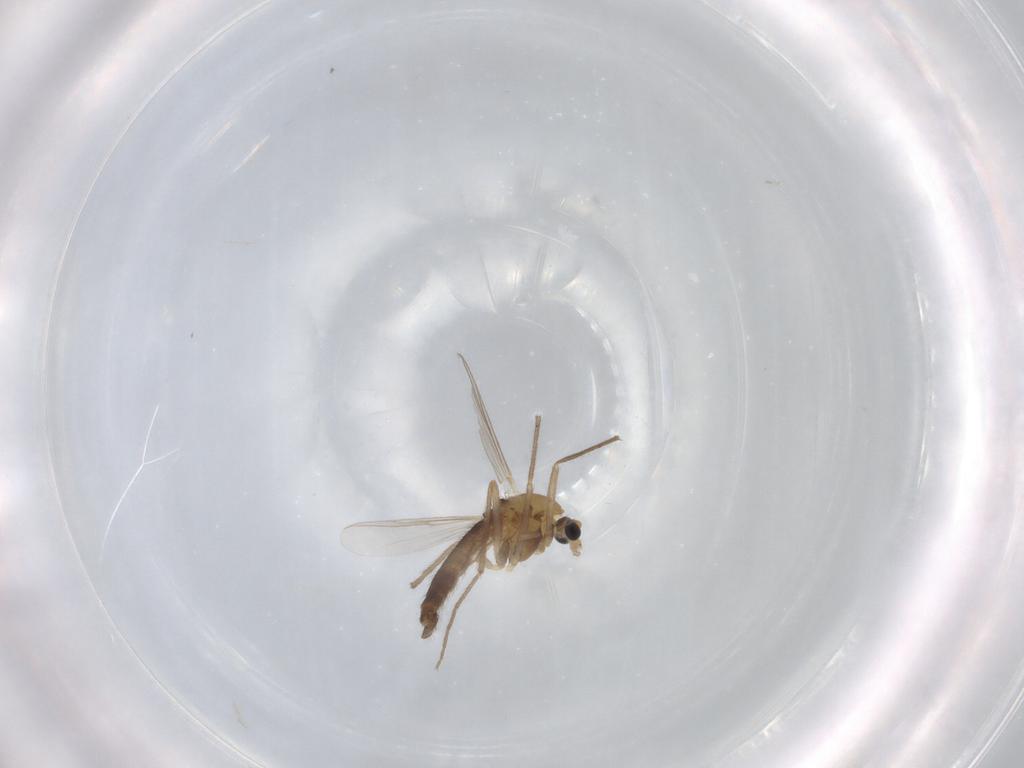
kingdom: Animalia
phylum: Arthropoda
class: Insecta
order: Diptera
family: Chironomidae
